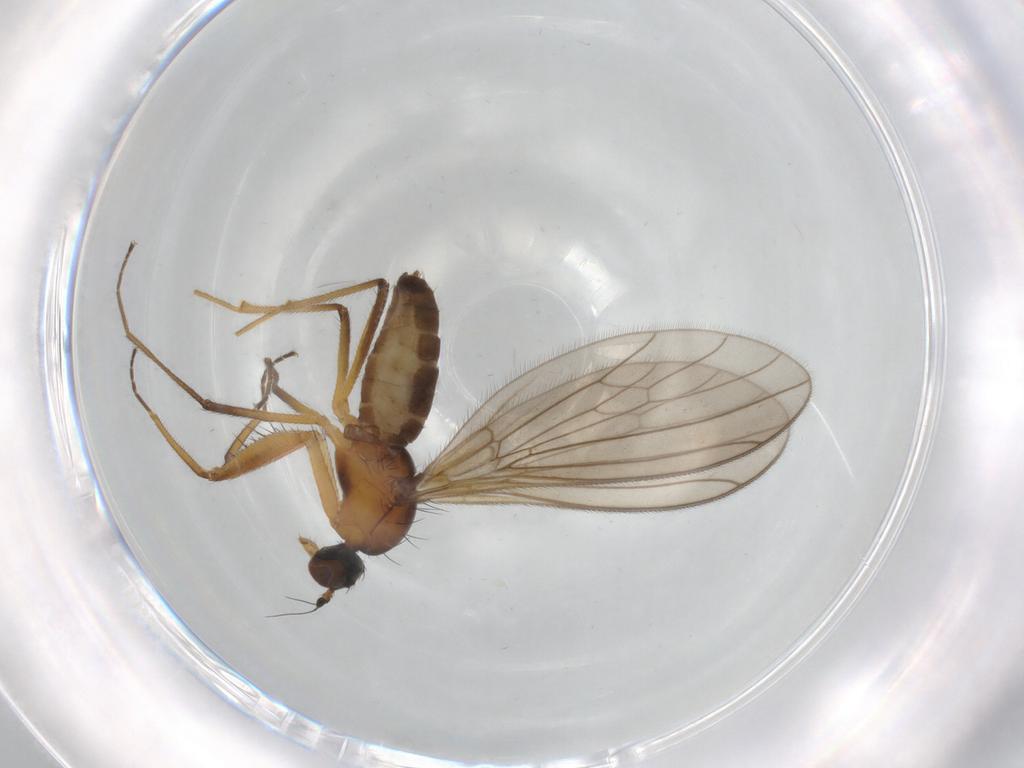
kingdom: Animalia
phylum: Arthropoda
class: Insecta
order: Diptera
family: Empididae
